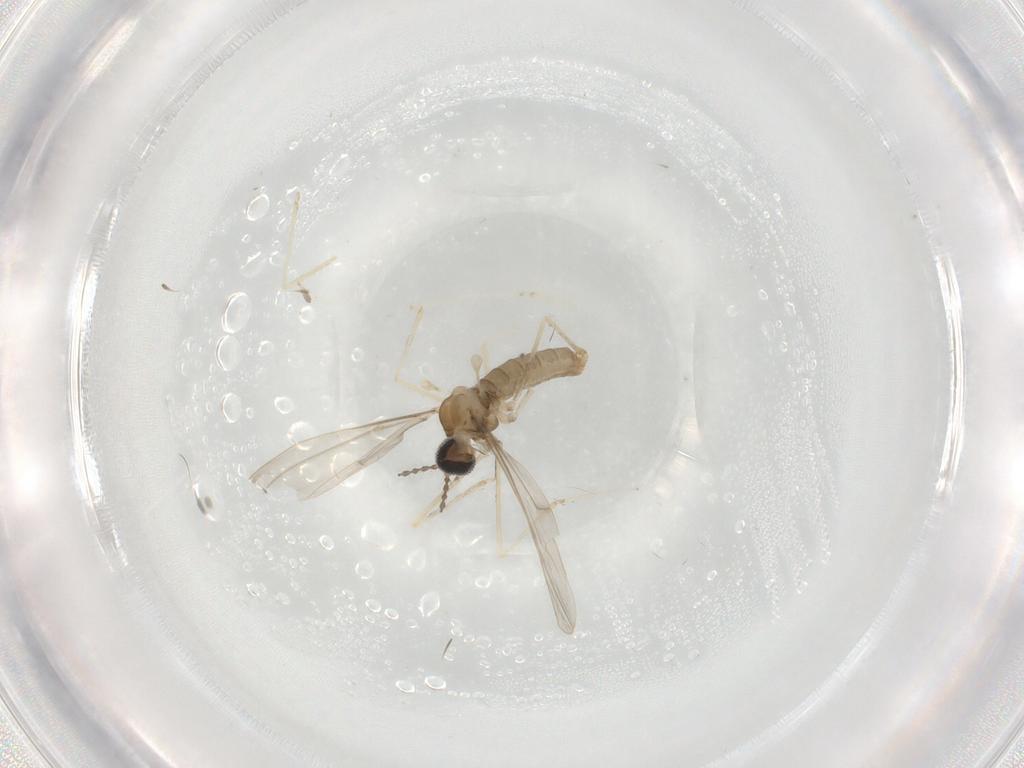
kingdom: Animalia
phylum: Arthropoda
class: Insecta
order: Diptera
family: Cecidomyiidae
